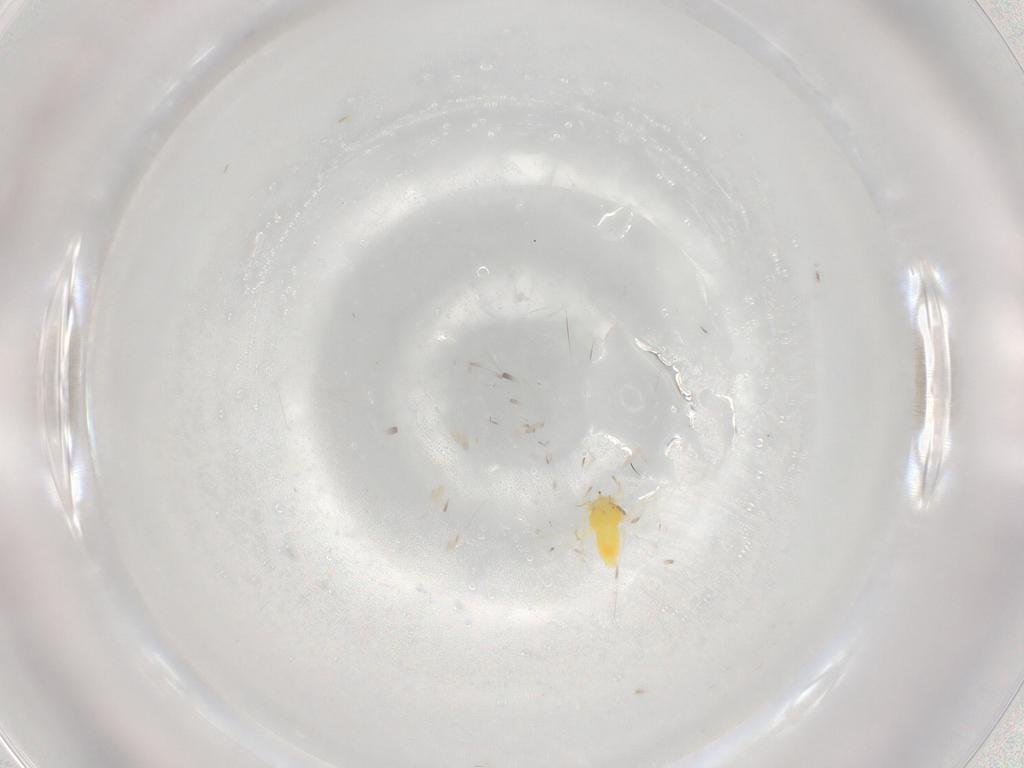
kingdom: Animalia
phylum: Arthropoda
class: Insecta
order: Hemiptera
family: Aleyrodidae
